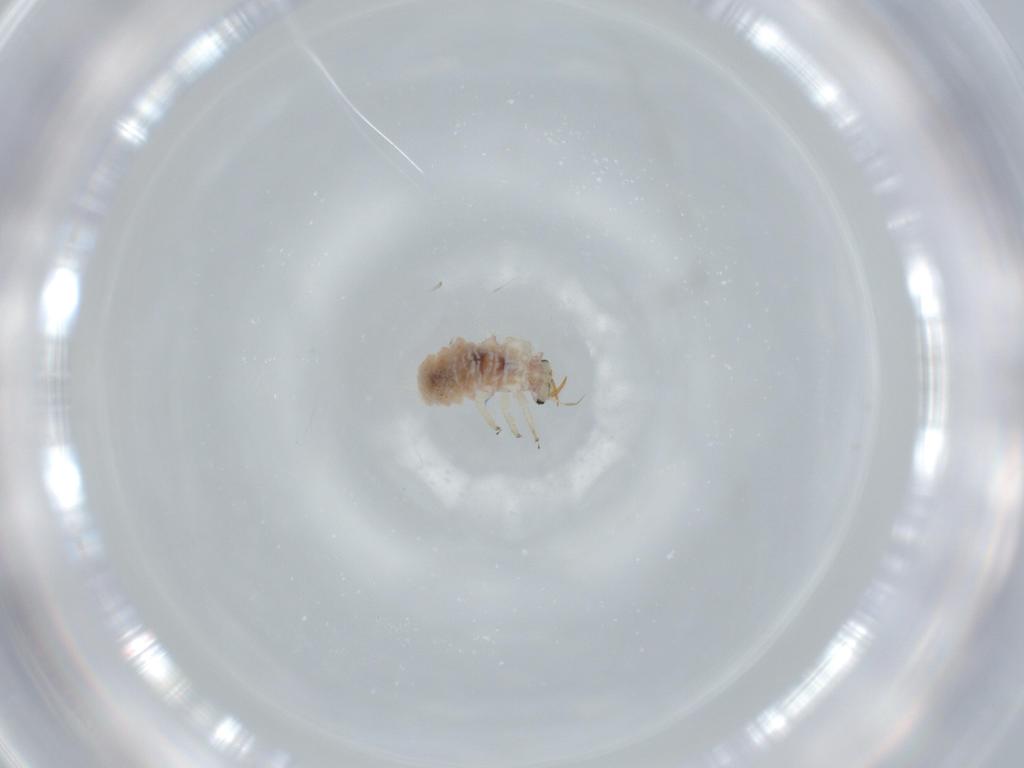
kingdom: Animalia
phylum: Arthropoda
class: Insecta
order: Neuroptera
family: Chrysopidae
